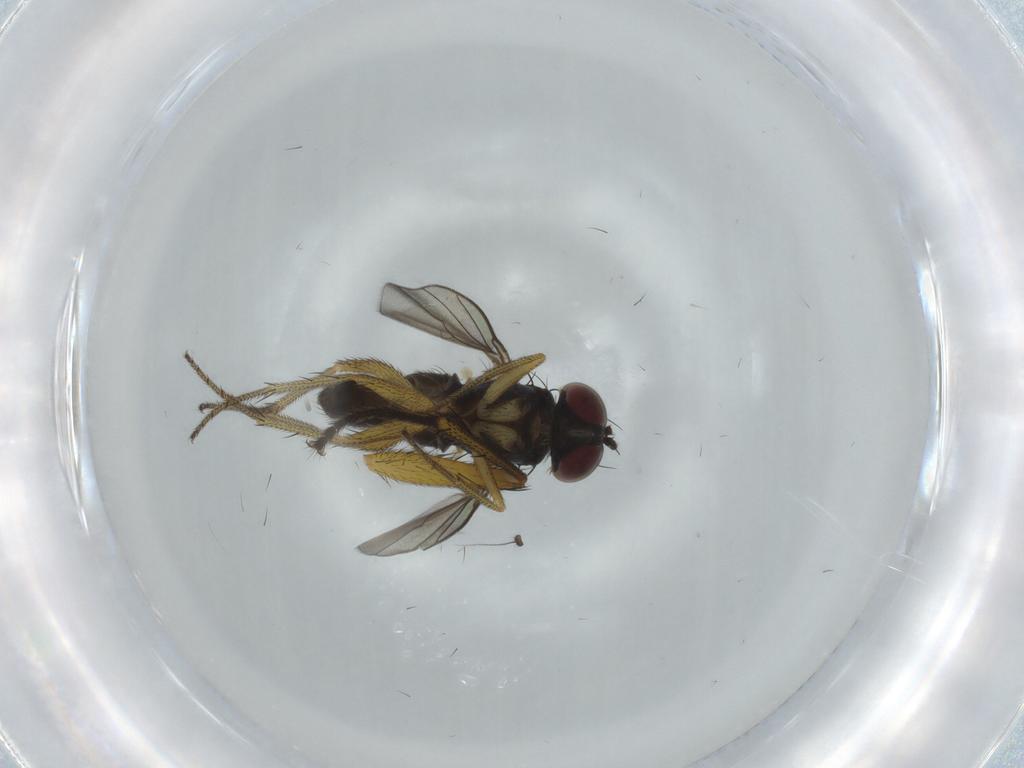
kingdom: Animalia
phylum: Arthropoda
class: Insecta
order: Diptera
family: Muscidae
